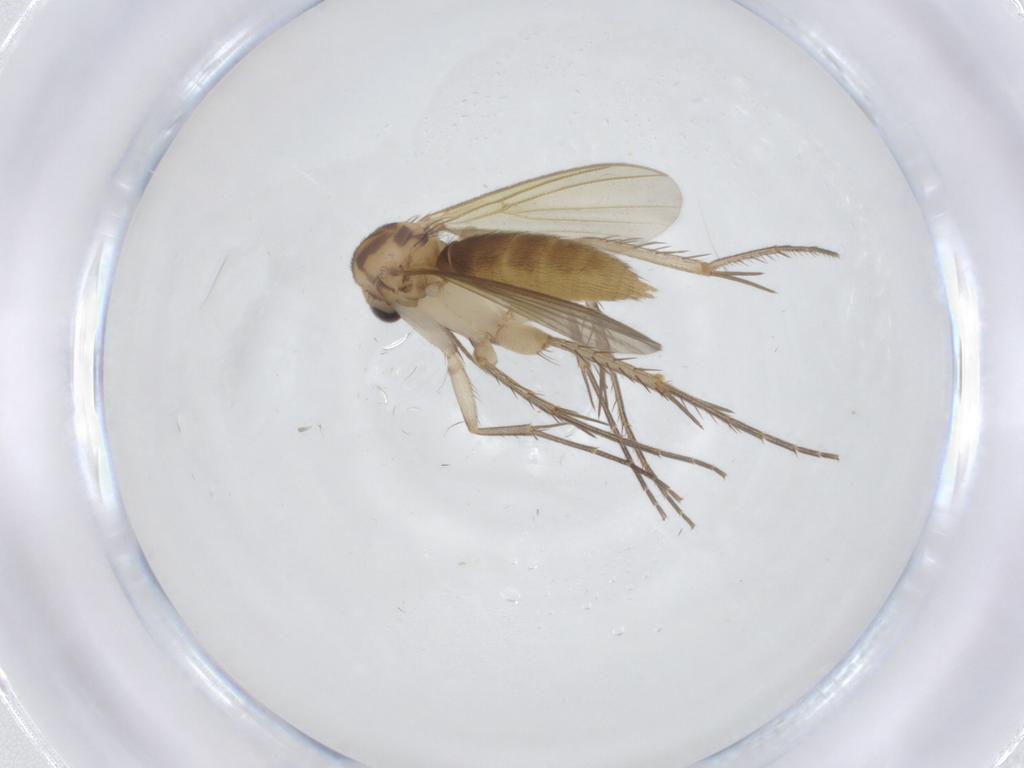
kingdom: Animalia
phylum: Arthropoda
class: Insecta
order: Diptera
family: Mycetophilidae
